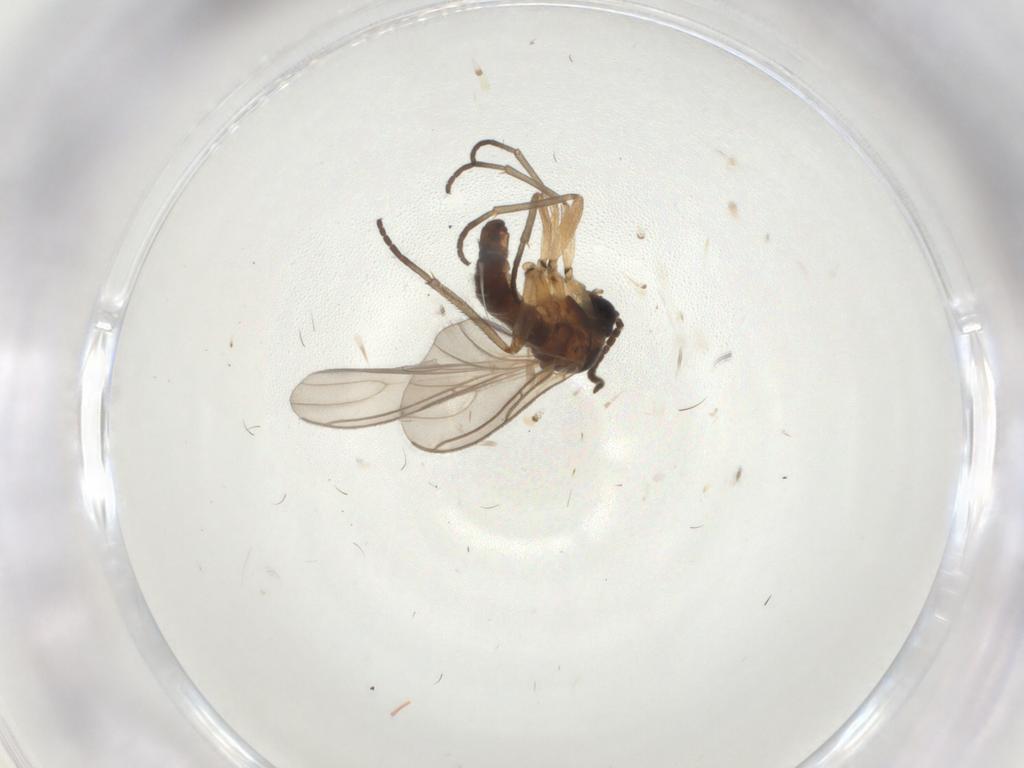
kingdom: Animalia
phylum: Arthropoda
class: Insecta
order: Diptera
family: Sciaridae
